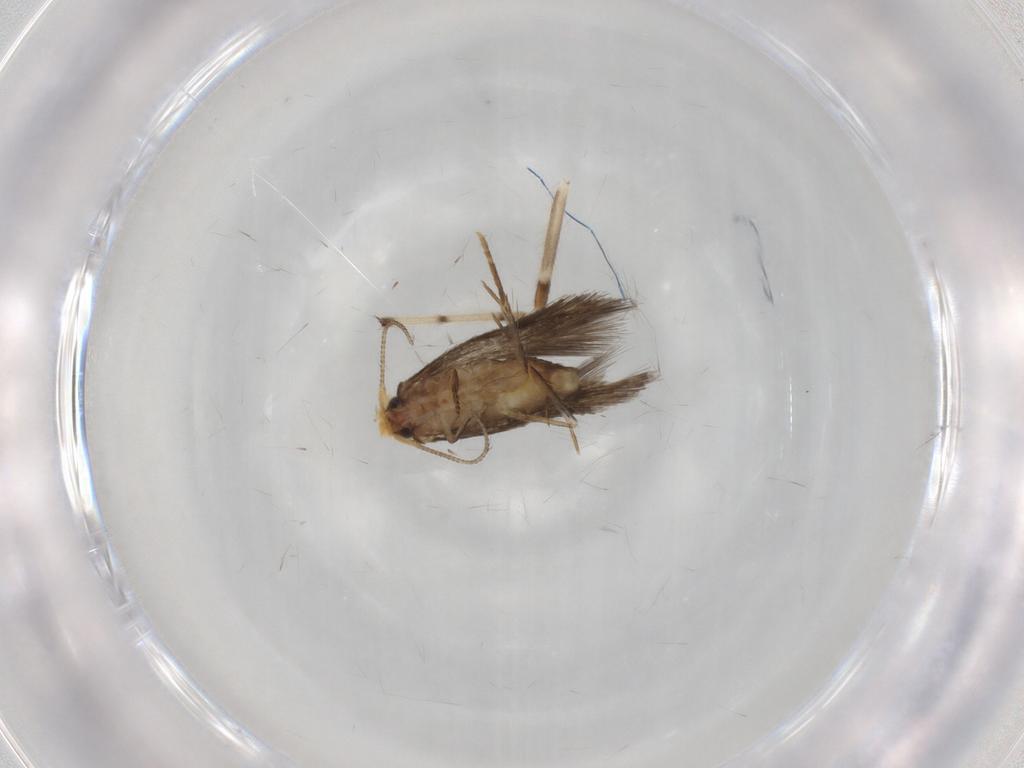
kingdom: Animalia
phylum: Arthropoda
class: Insecta
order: Lepidoptera
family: Nepticulidae
